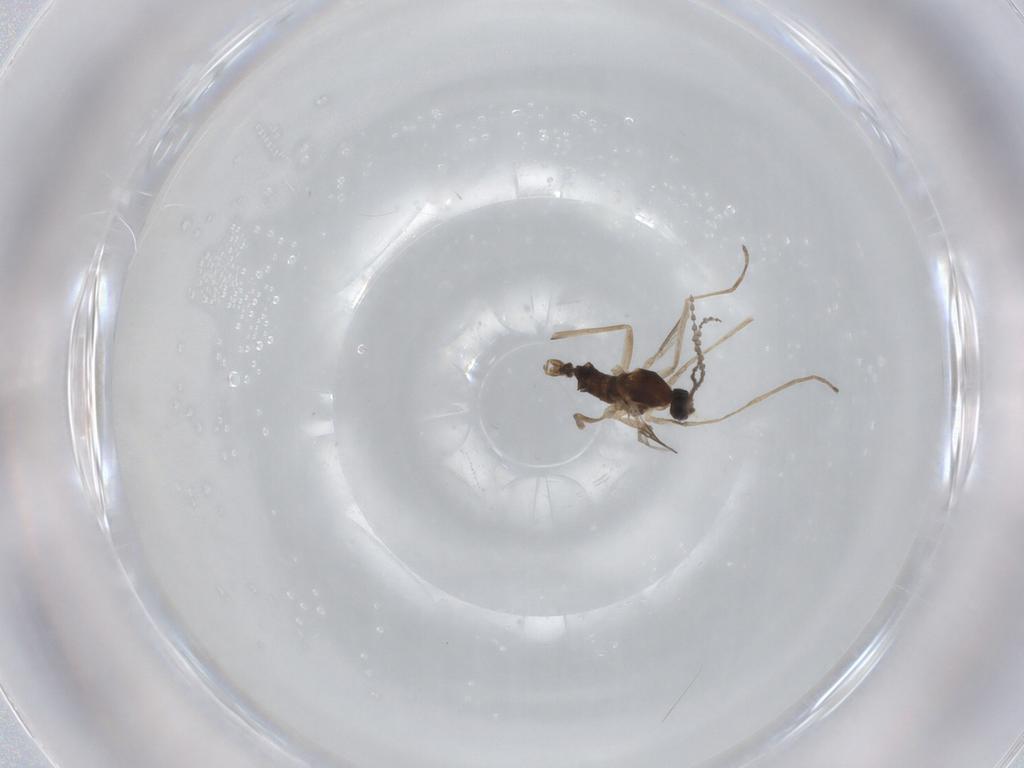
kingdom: Animalia
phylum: Arthropoda
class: Insecta
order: Diptera
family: Cecidomyiidae
